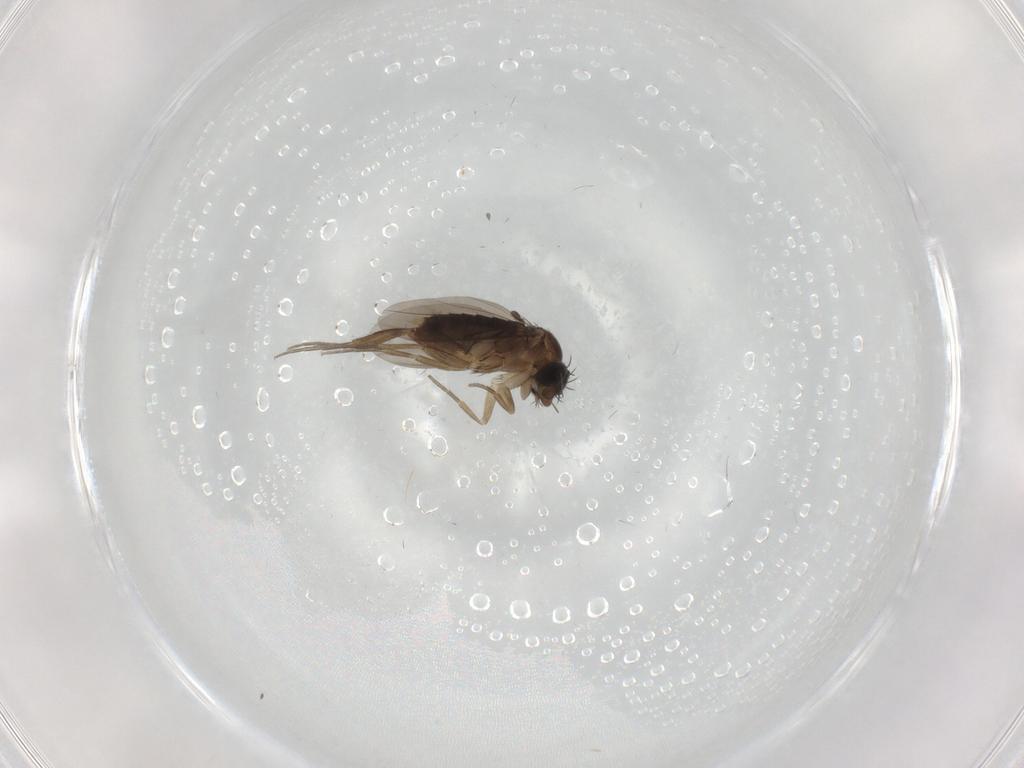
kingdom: Animalia
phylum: Arthropoda
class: Insecta
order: Diptera
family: Phoridae
